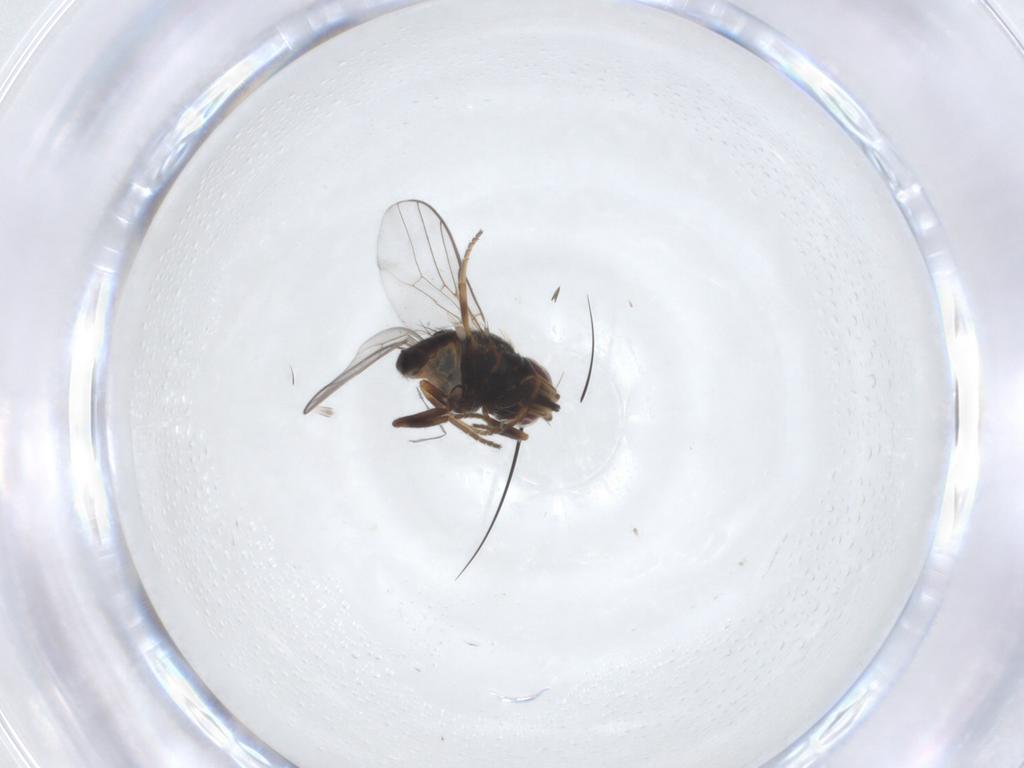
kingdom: Animalia
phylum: Arthropoda
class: Insecta
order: Diptera
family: Chloropidae
